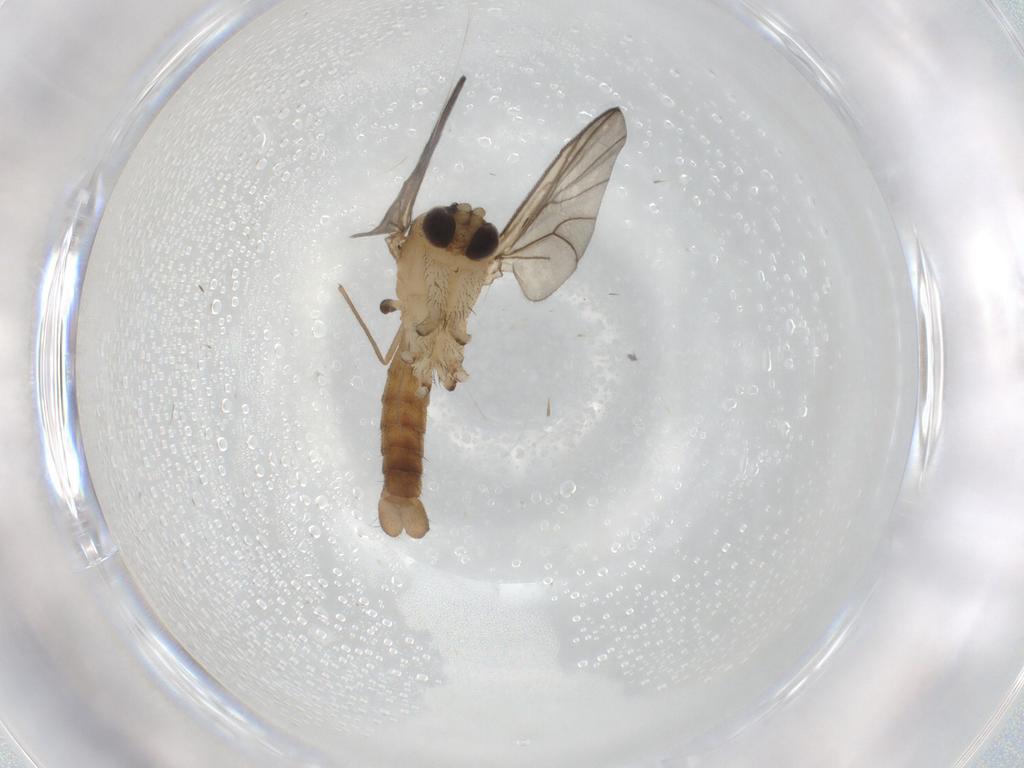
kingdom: Animalia
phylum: Arthropoda
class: Insecta
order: Diptera
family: Mycetophilidae
